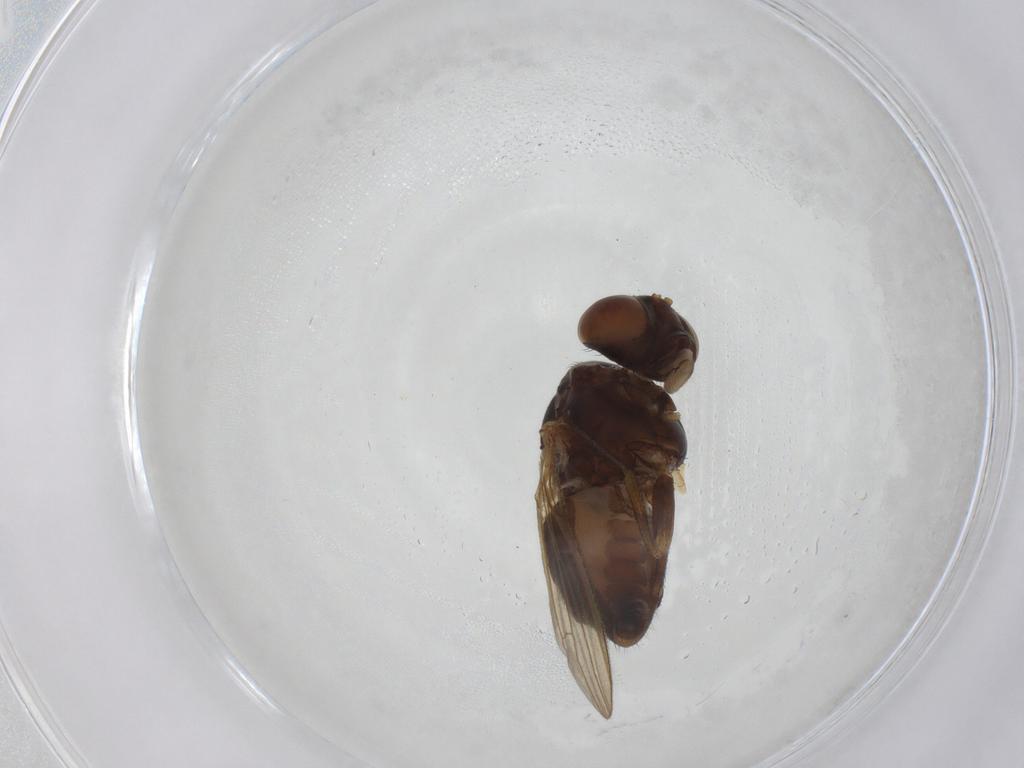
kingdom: Animalia
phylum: Arthropoda
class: Insecta
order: Diptera
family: Lauxaniidae
